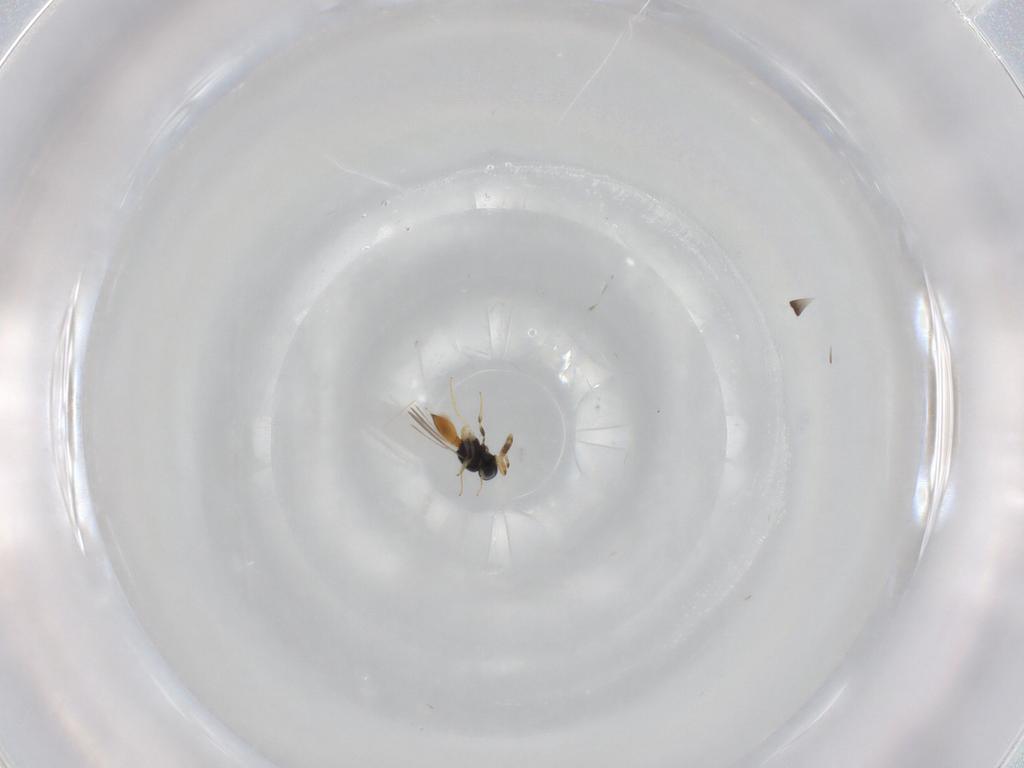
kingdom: Animalia
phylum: Arthropoda
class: Insecta
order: Hymenoptera
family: Scelionidae
